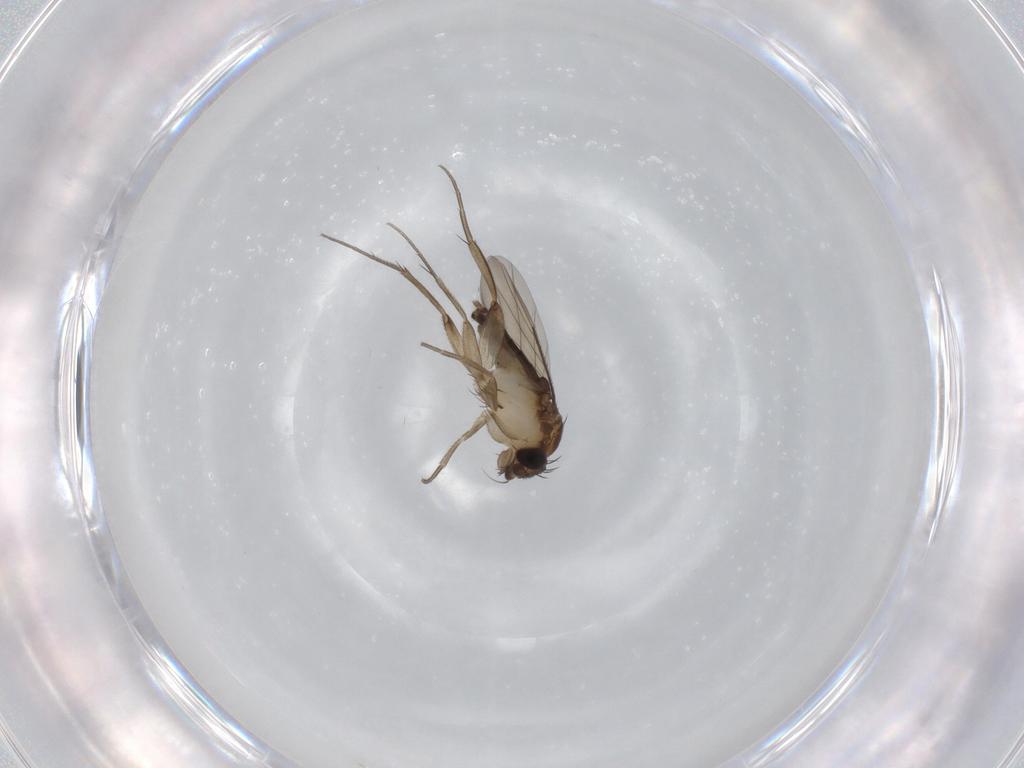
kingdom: Animalia
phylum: Arthropoda
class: Insecta
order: Diptera
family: Phoridae
